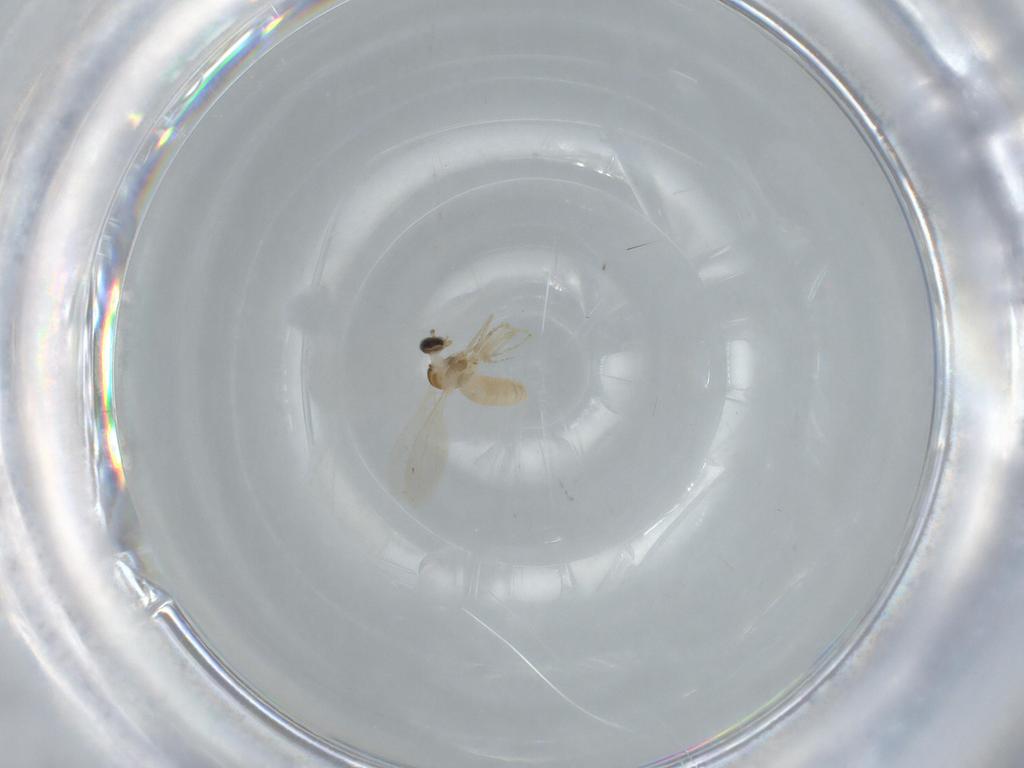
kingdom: Animalia
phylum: Arthropoda
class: Insecta
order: Diptera
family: Cecidomyiidae
